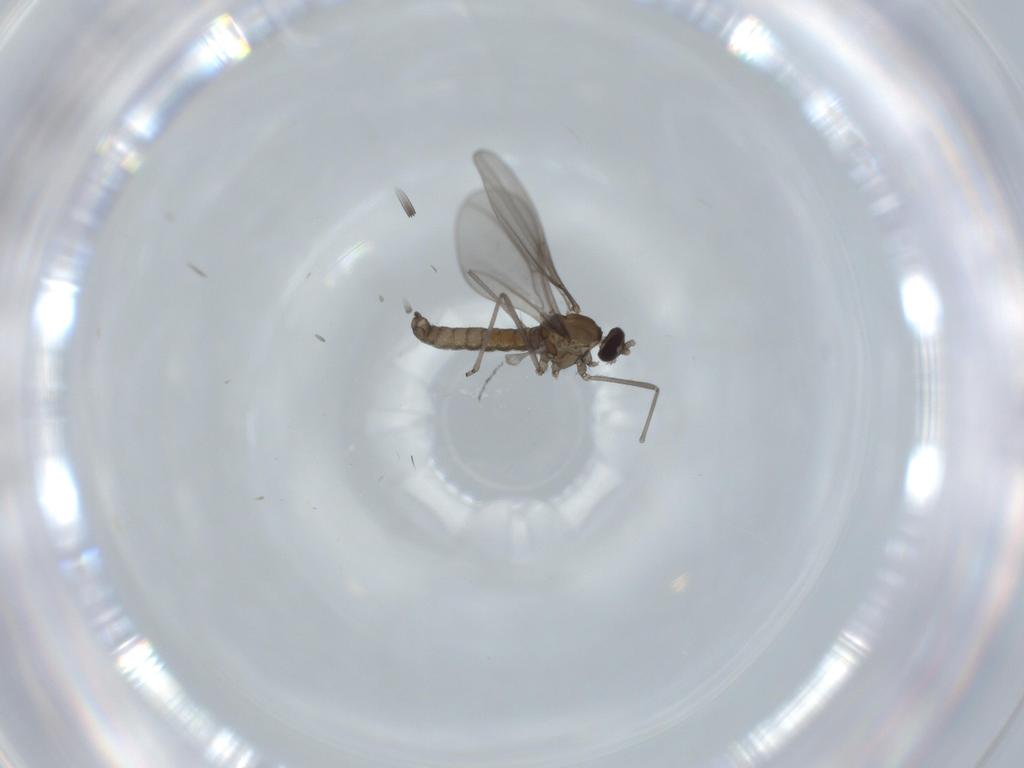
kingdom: Animalia
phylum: Arthropoda
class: Insecta
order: Diptera
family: Cecidomyiidae
